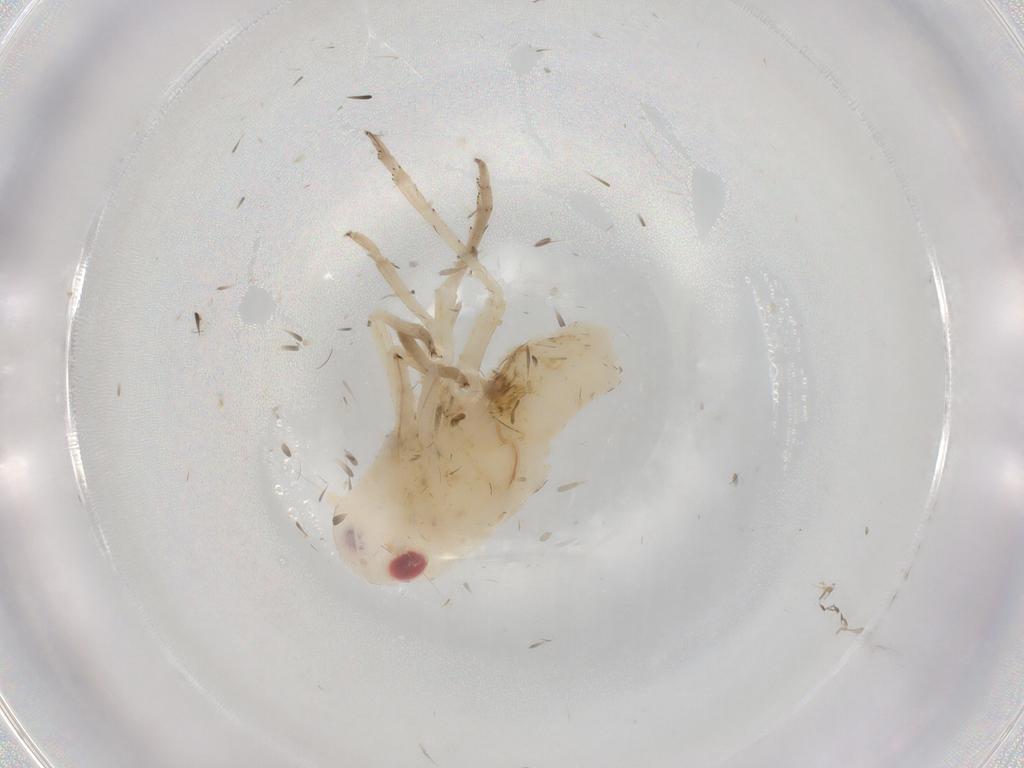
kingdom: Animalia
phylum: Arthropoda
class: Insecta
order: Hemiptera
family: Tropiduchidae
